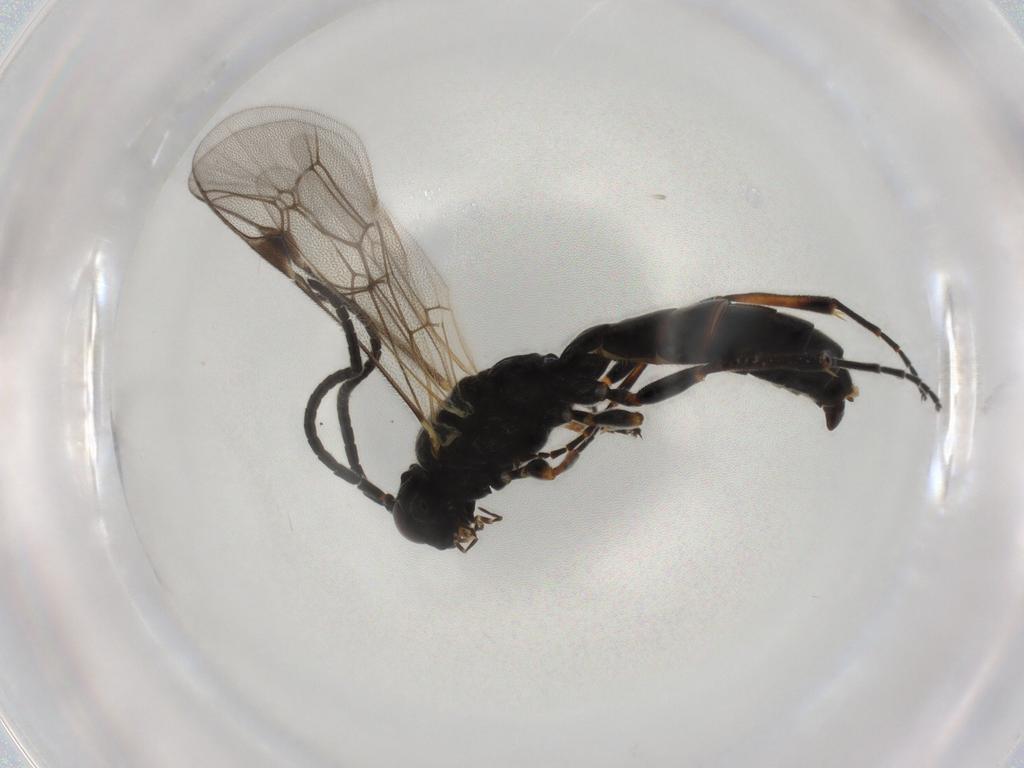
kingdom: Animalia
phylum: Arthropoda
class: Insecta
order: Hymenoptera
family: Ichneumonidae
